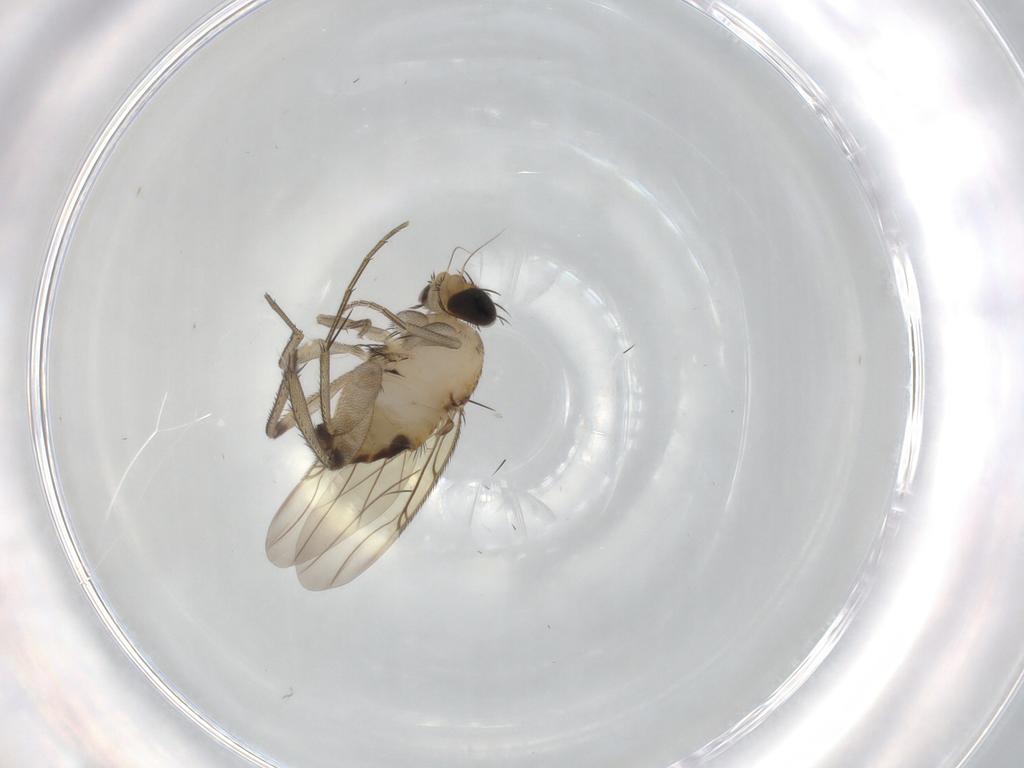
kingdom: Animalia
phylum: Arthropoda
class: Insecta
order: Diptera
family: Phoridae
